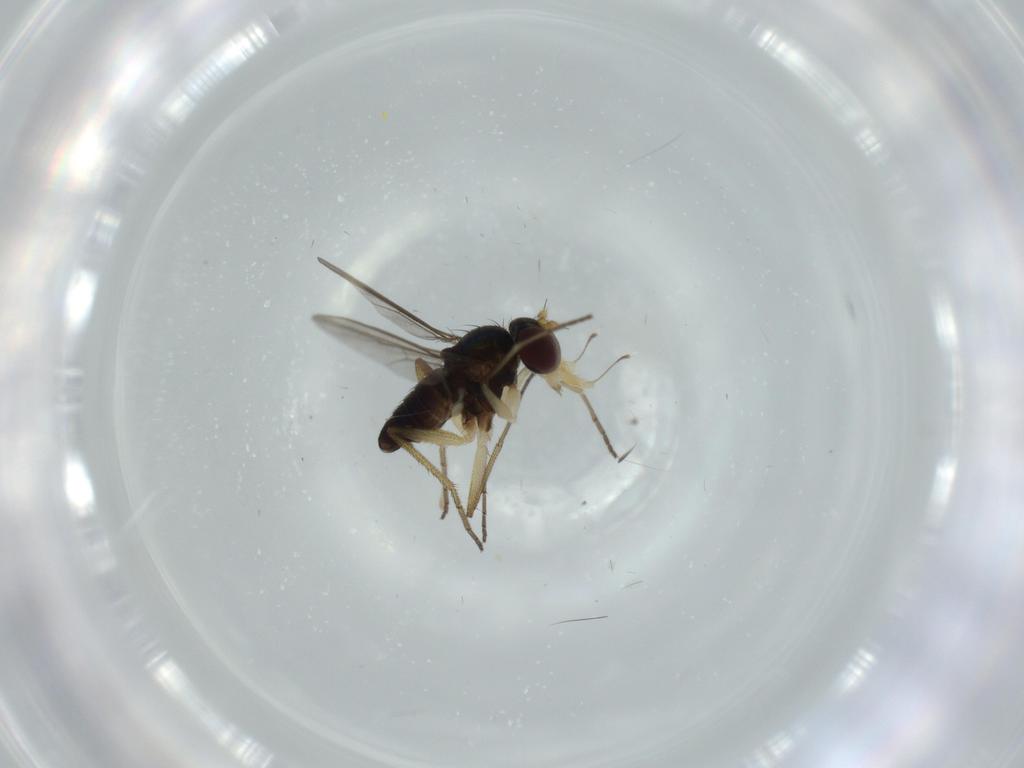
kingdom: Animalia
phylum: Arthropoda
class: Insecta
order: Diptera
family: Dolichopodidae
